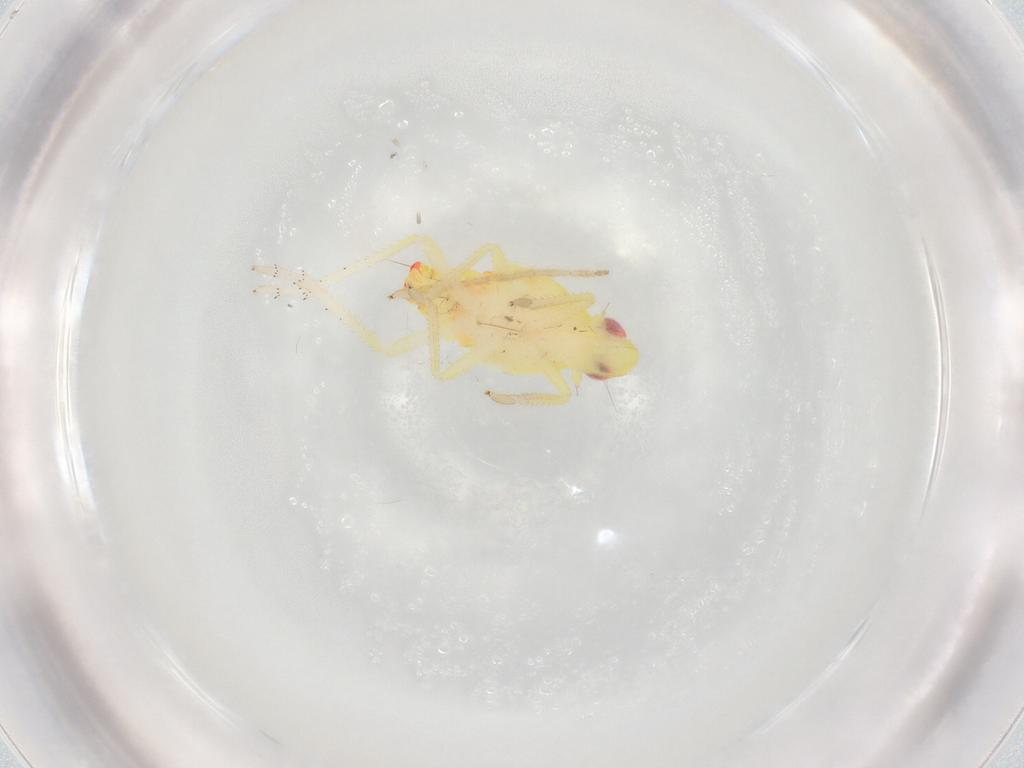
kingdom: Animalia
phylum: Arthropoda
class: Insecta
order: Hemiptera
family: Tropiduchidae
